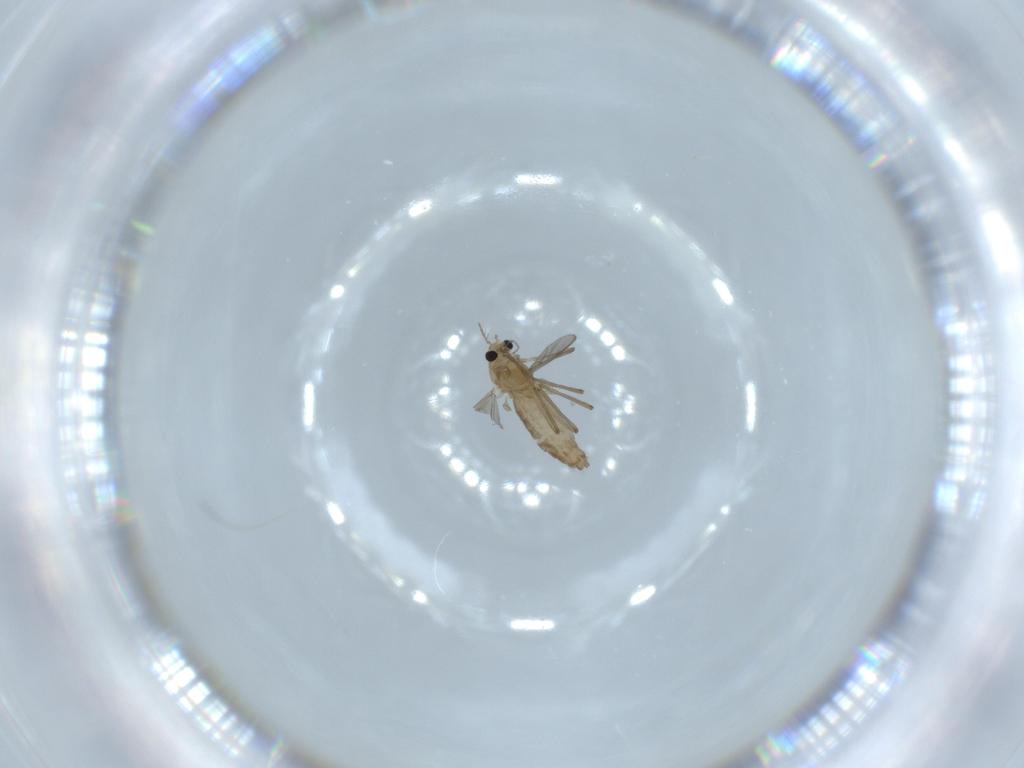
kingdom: Animalia
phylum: Arthropoda
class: Insecta
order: Diptera
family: Chironomidae
